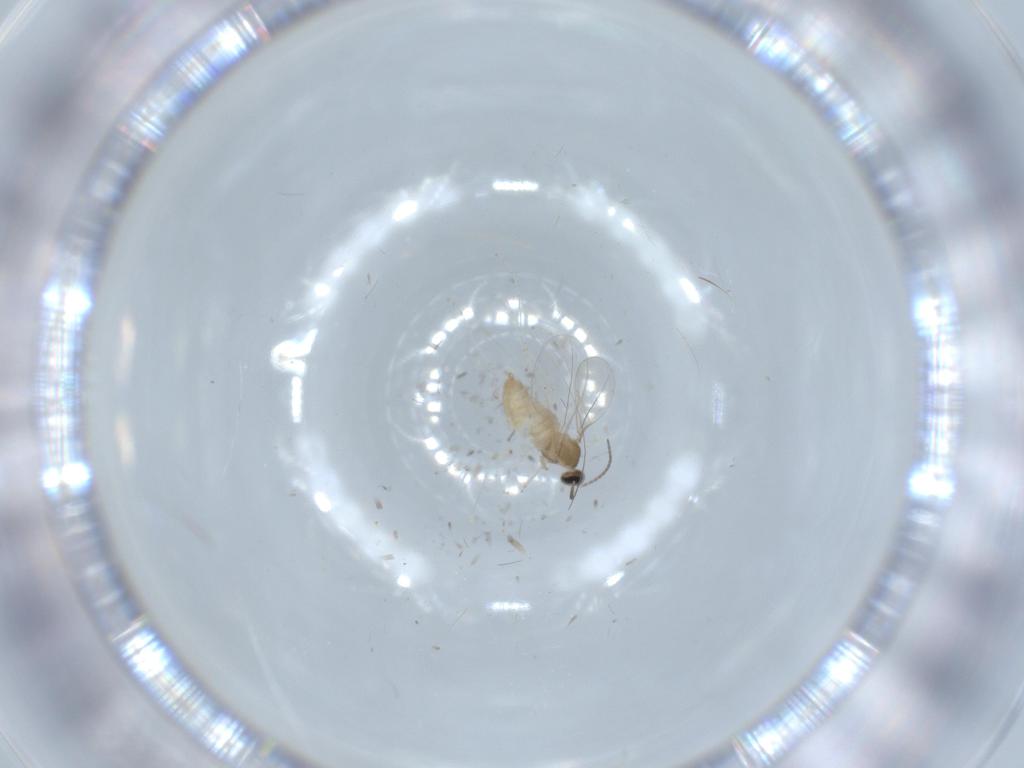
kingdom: Animalia
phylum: Arthropoda
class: Insecta
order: Diptera
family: Cecidomyiidae
